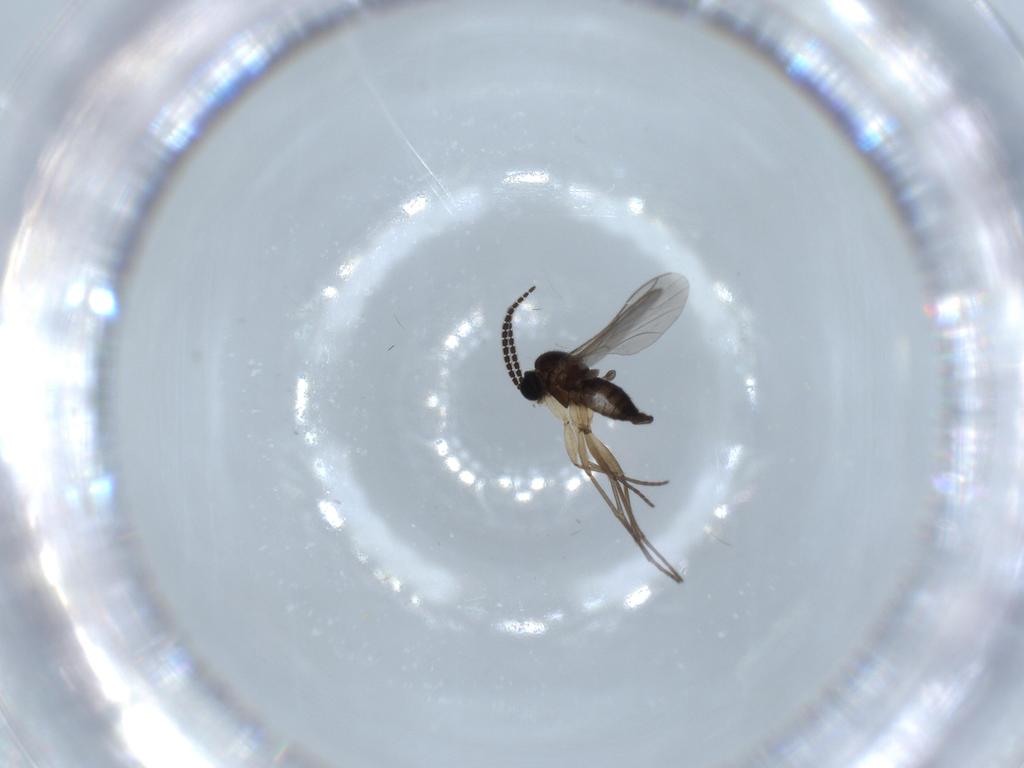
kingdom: Animalia
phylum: Arthropoda
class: Insecta
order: Diptera
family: Sciaridae
